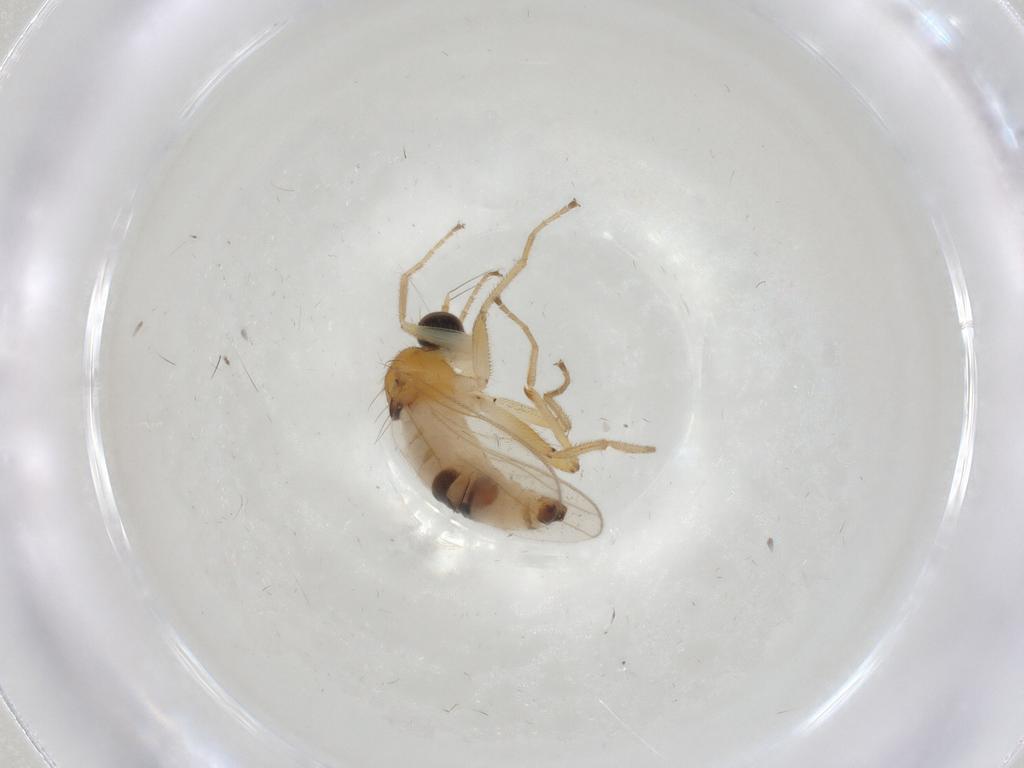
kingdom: Animalia
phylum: Arthropoda
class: Insecta
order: Diptera
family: Hybotidae
